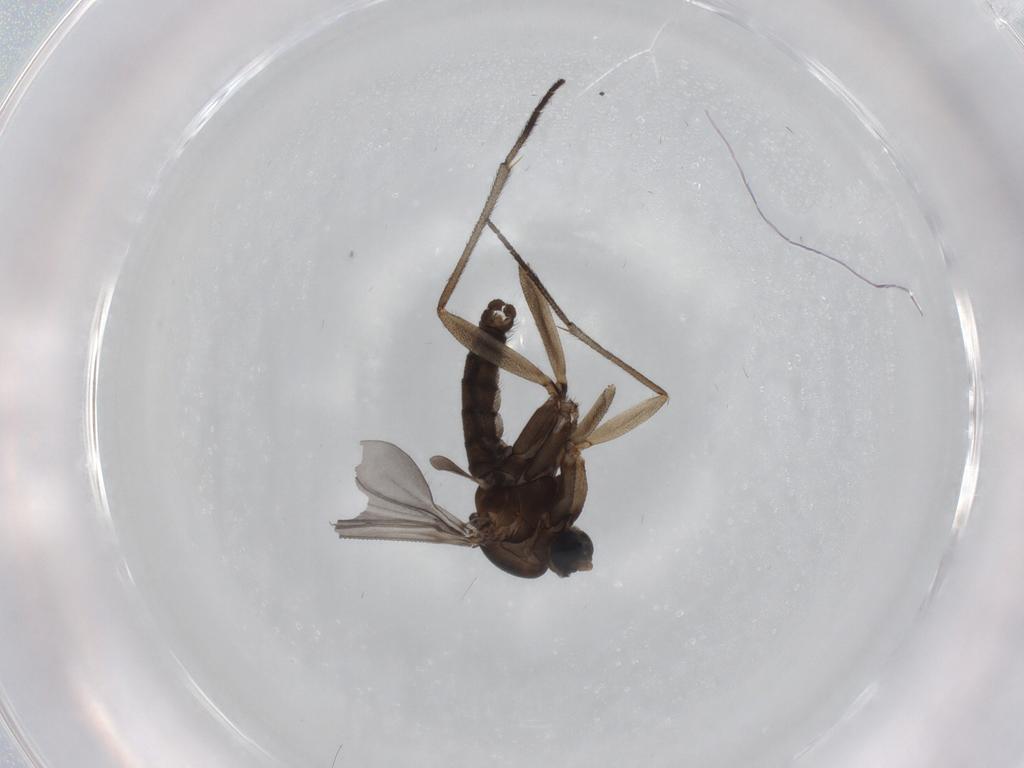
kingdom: Animalia
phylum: Arthropoda
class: Insecta
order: Diptera
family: Sciaridae
